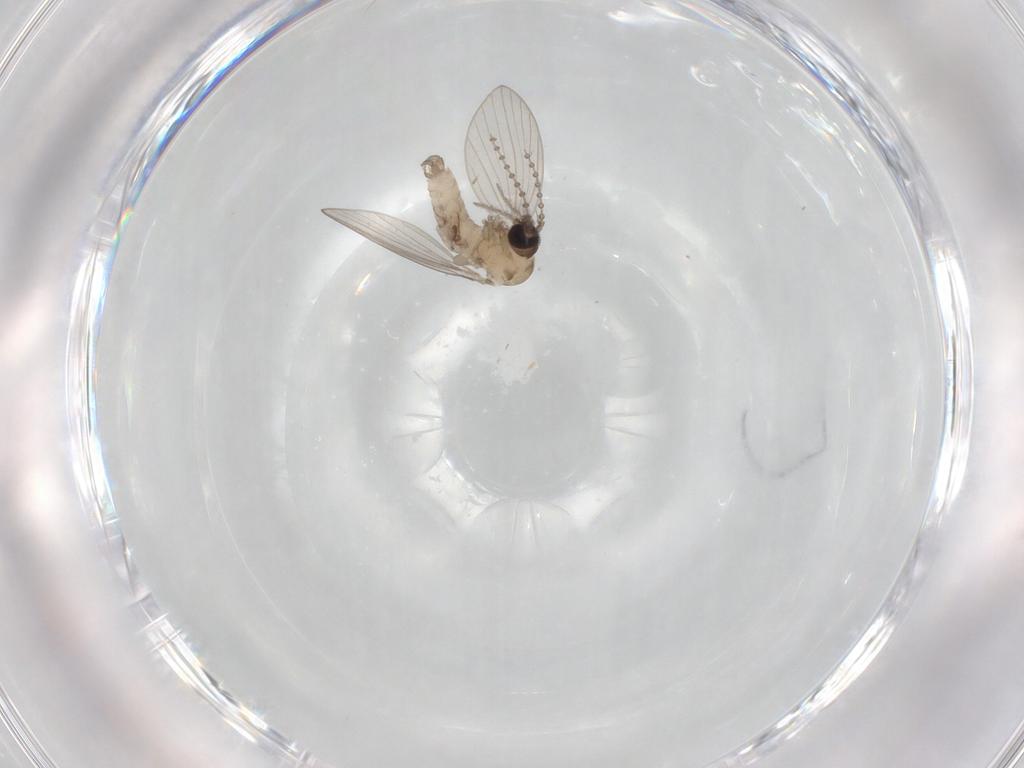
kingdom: Animalia
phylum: Arthropoda
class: Insecta
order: Diptera
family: Psychodidae
